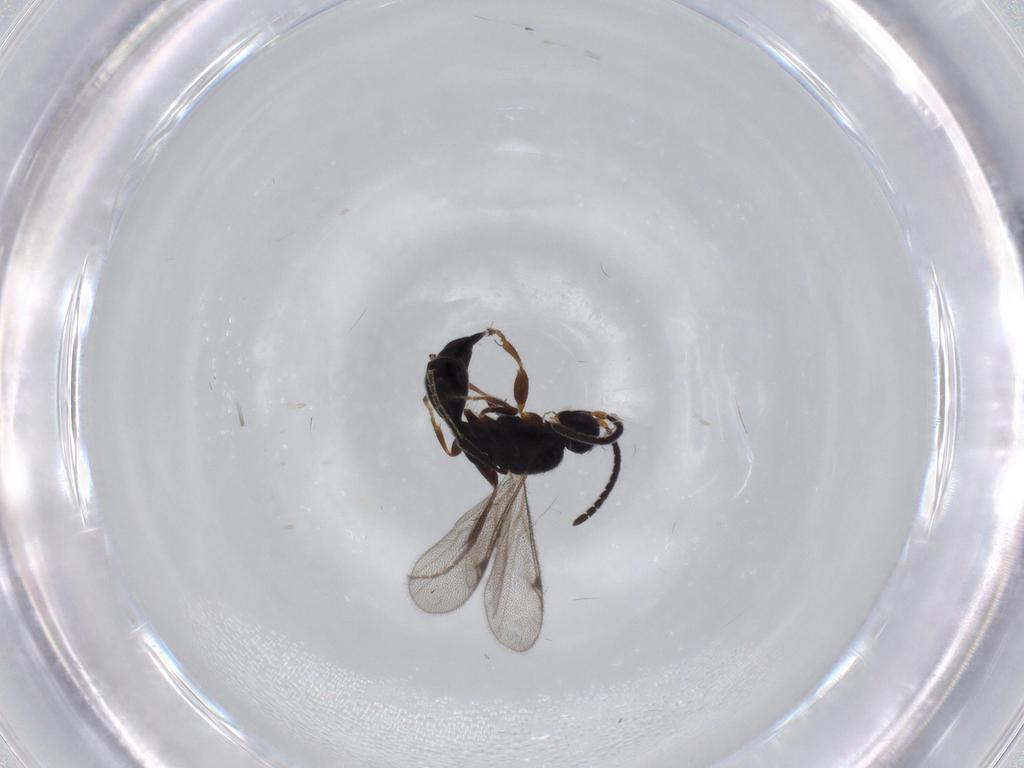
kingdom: Animalia
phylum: Arthropoda
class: Insecta
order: Hymenoptera
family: Proctotrupidae
